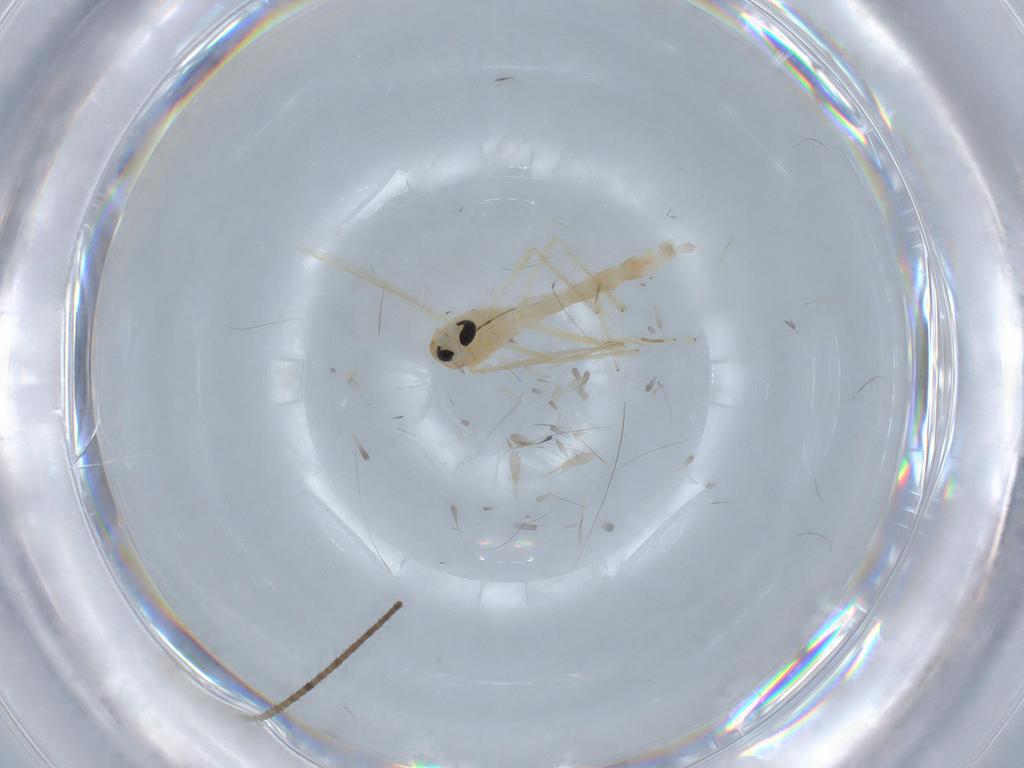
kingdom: Animalia
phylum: Arthropoda
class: Insecta
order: Diptera
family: Chironomidae
